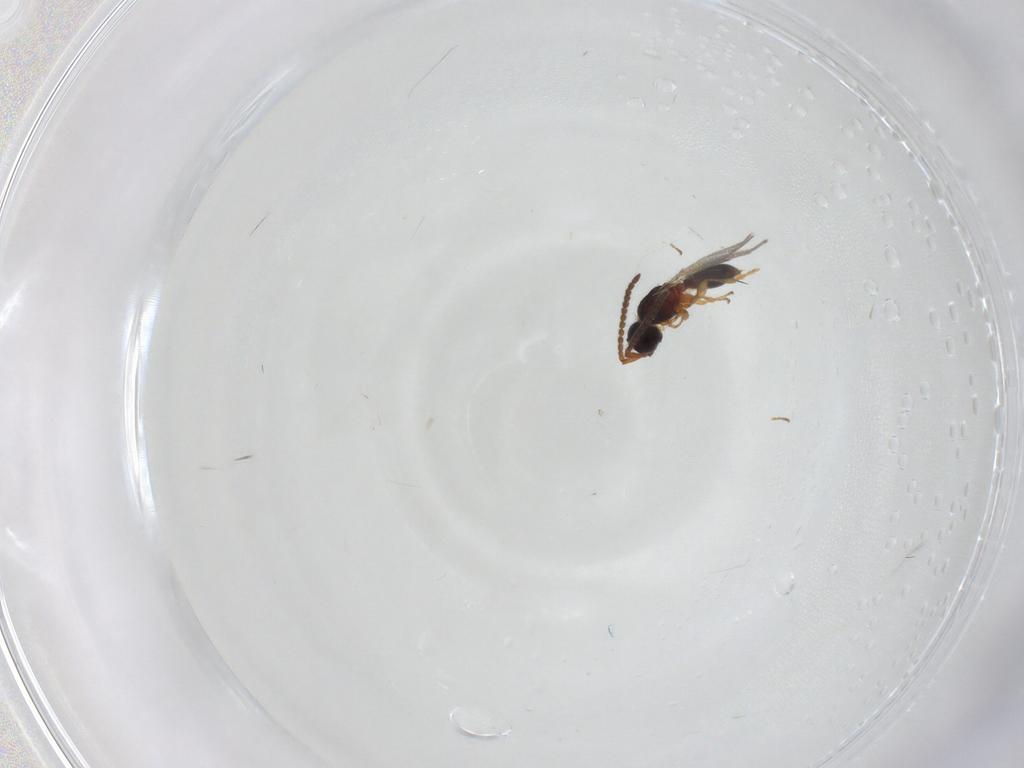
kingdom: Animalia
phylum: Arthropoda
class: Insecta
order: Hymenoptera
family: Diapriidae
